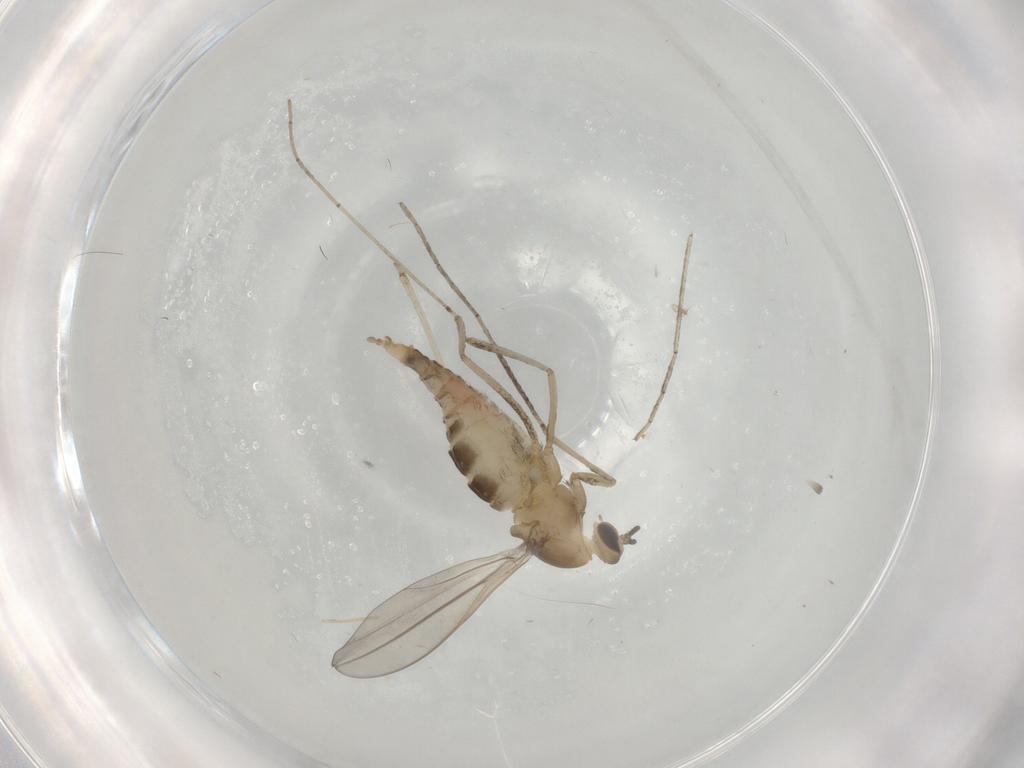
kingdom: Animalia
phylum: Arthropoda
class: Insecta
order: Diptera
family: Cecidomyiidae
